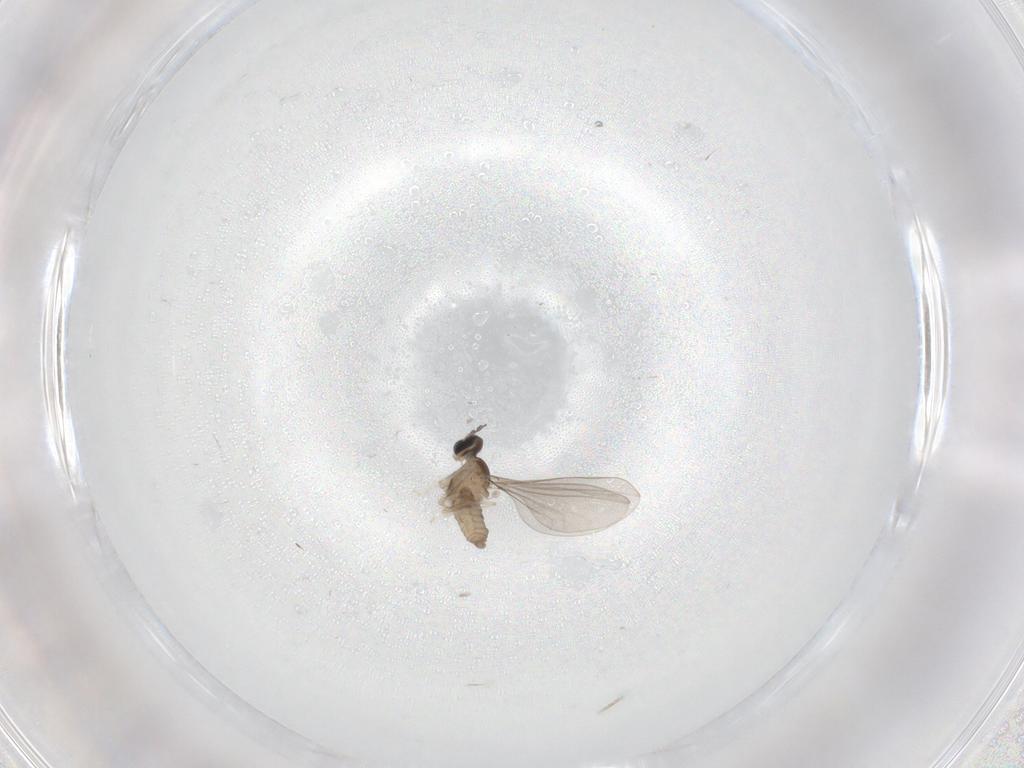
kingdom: Animalia
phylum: Arthropoda
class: Insecta
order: Diptera
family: Cecidomyiidae
